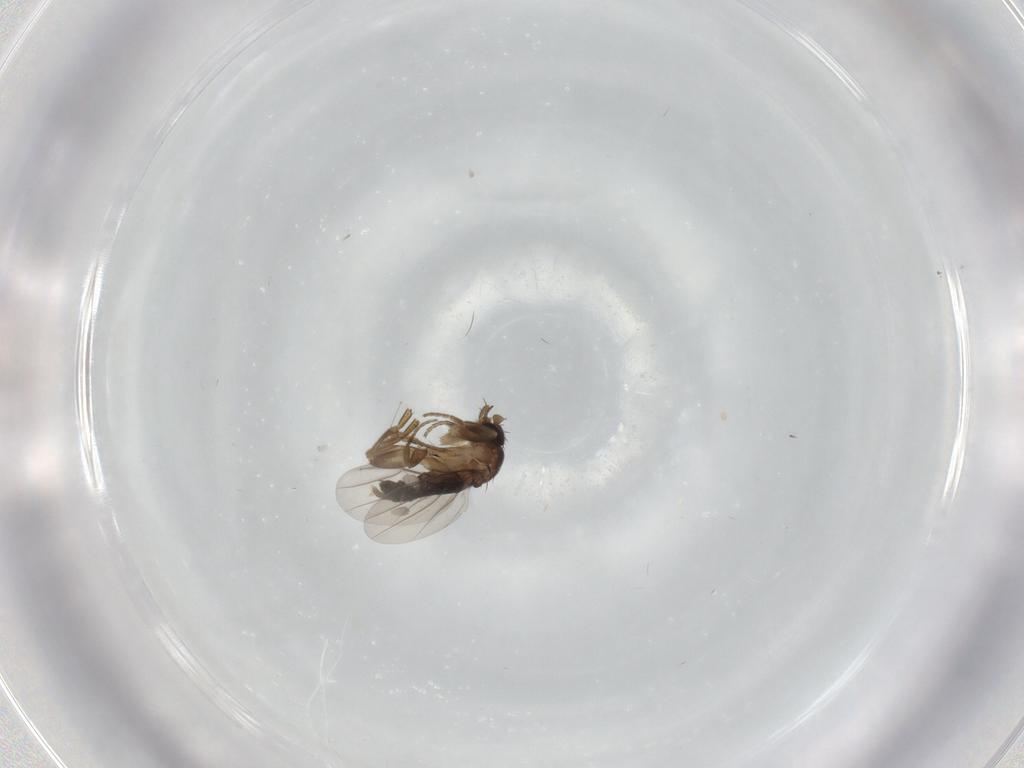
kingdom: Animalia
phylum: Arthropoda
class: Insecta
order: Diptera
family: Cecidomyiidae
